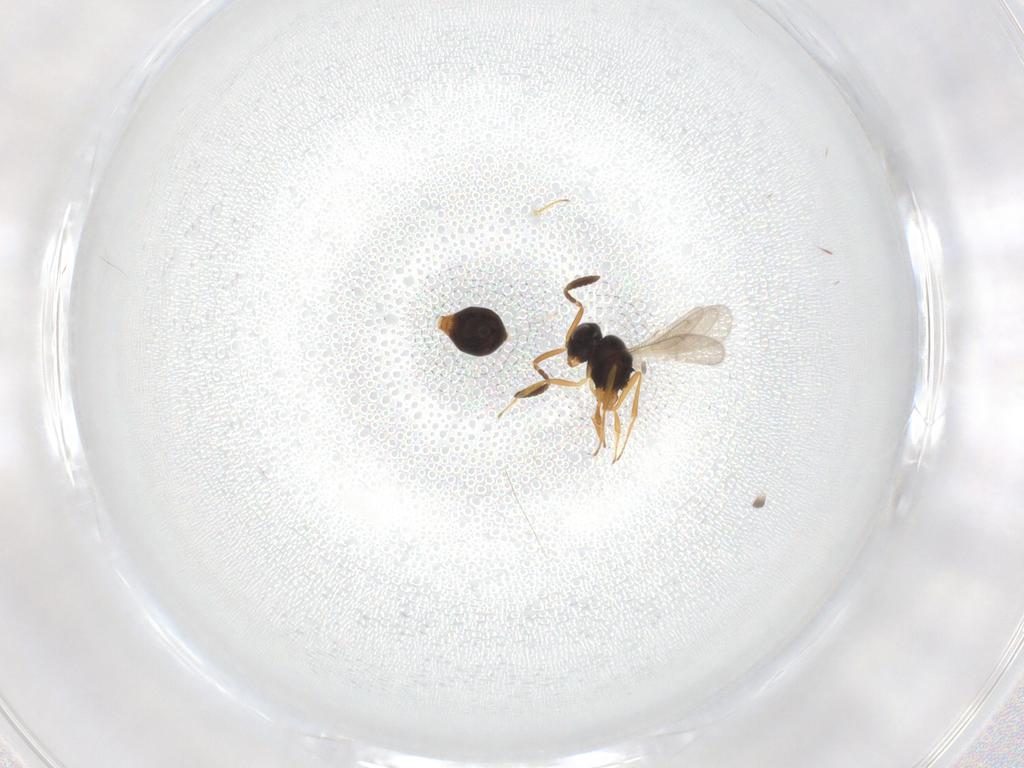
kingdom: Animalia
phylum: Arthropoda
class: Insecta
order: Hymenoptera
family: Scelionidae
